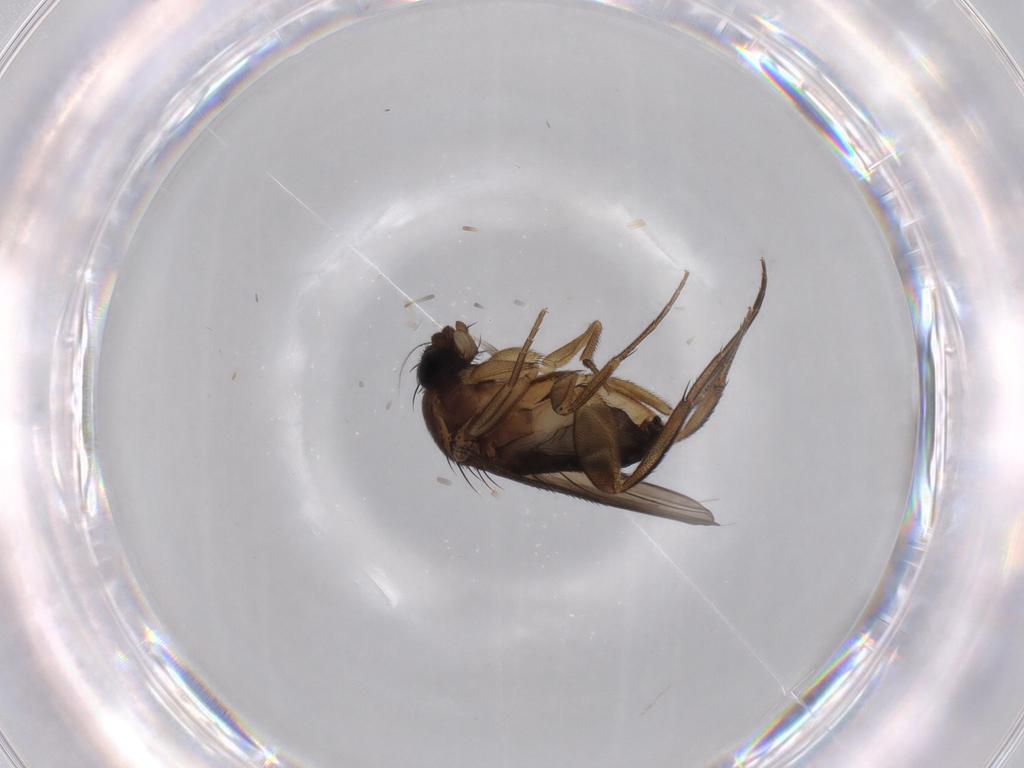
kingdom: Animalia
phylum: Arthropoda
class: Insecta
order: Diptera
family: Phoridae
